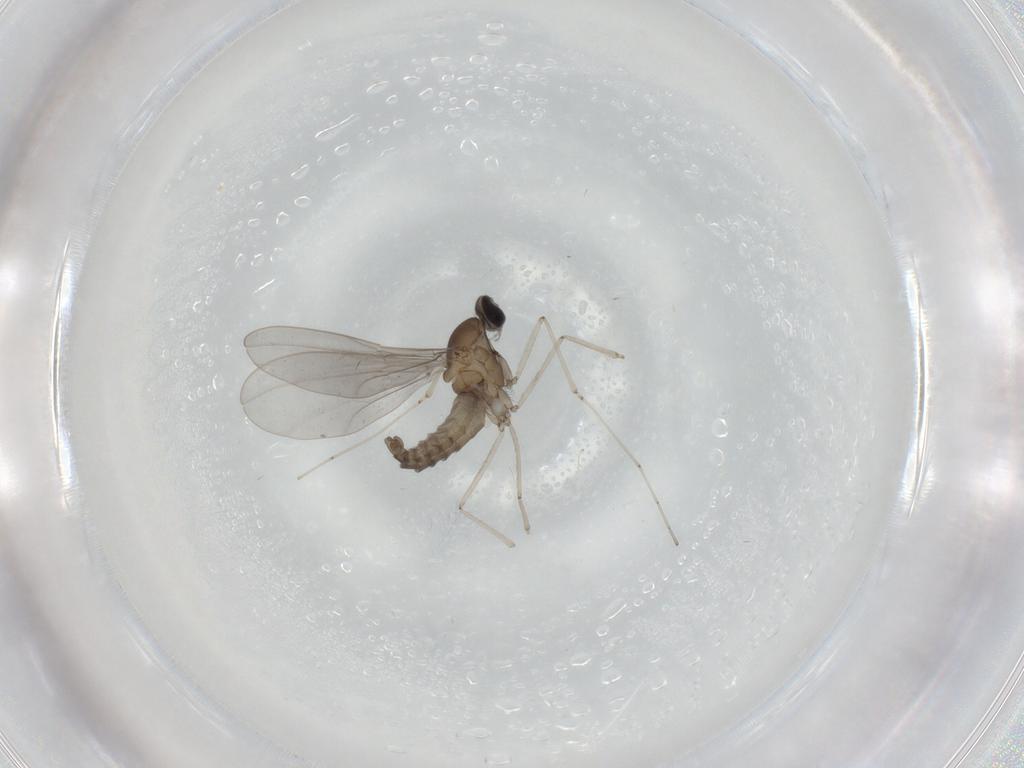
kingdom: Animalia
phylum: Arthropoda
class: Insecta
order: Diptera
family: Cecidomyiidae
